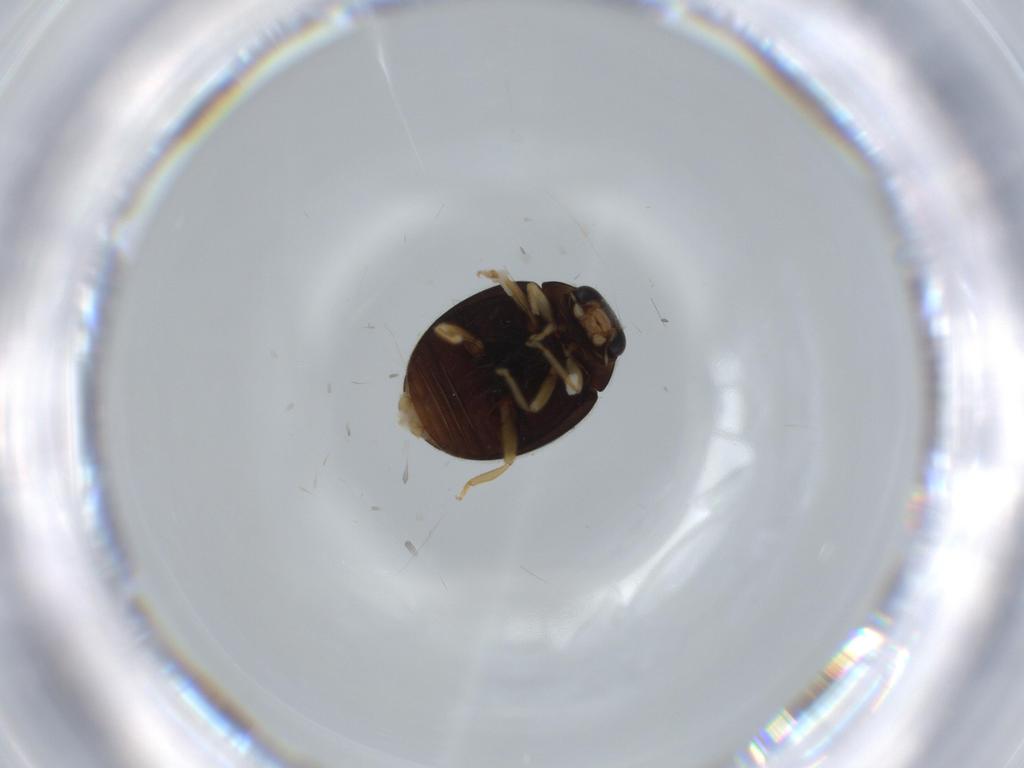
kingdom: Animalia
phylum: Arthropoda
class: Insecta
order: Coleoptera
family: Coccinellidae
